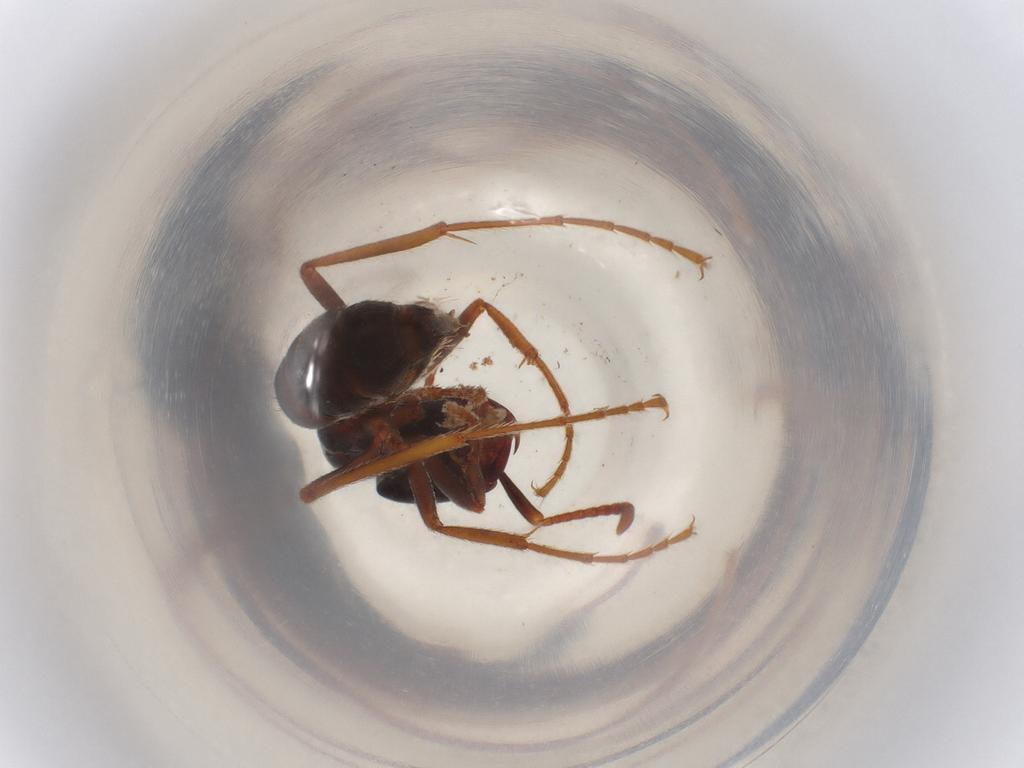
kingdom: Animalia
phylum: Arthropoda
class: Insecta
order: Hymenoptera
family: Formicidae
